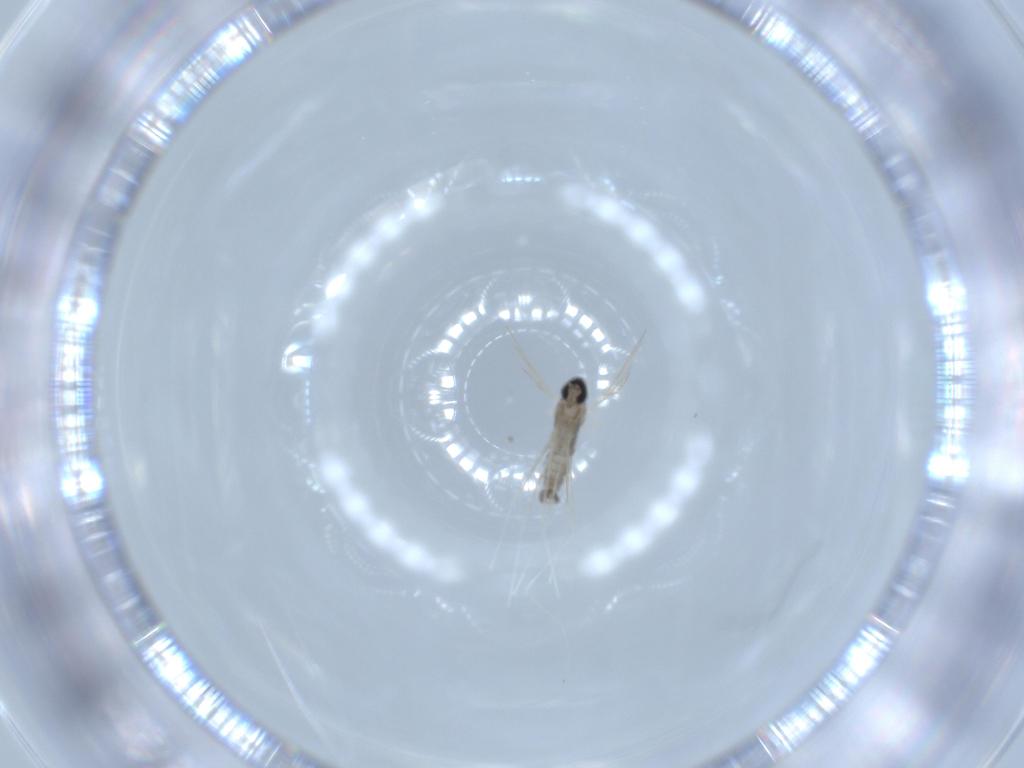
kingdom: Animalia
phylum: Arthropoda
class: Insecta
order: Diptera
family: Cecidomyiidae
